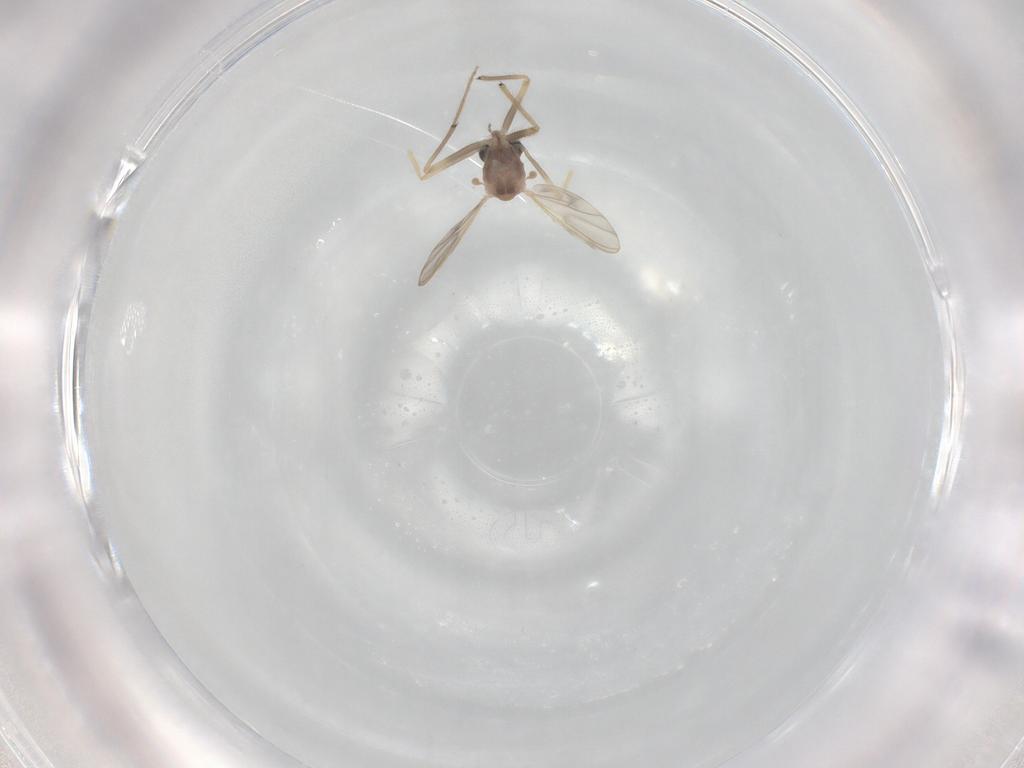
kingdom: Animalia
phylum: Arthropoda
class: Insecta
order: Diptera
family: Chironomidae
